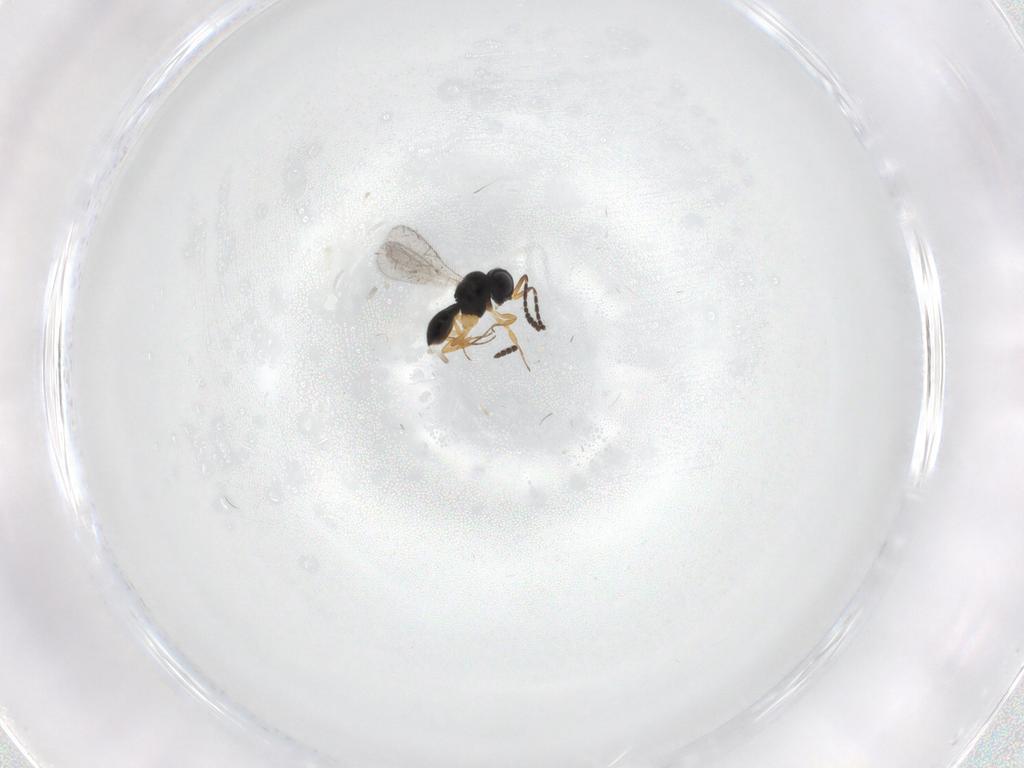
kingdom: Animalia
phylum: Arthropoda
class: Insecta
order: Hymenoptera
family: Scelionidae
